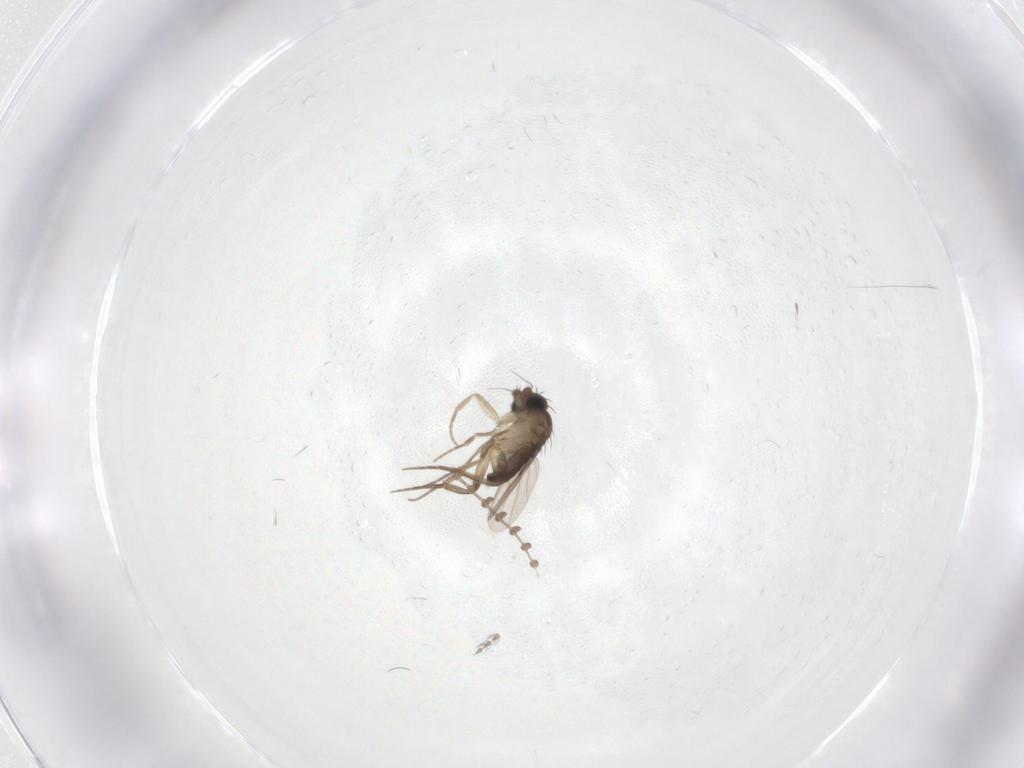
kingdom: Animalia
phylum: Arthropoda
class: Insecta
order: Diptera
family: Phoridae
